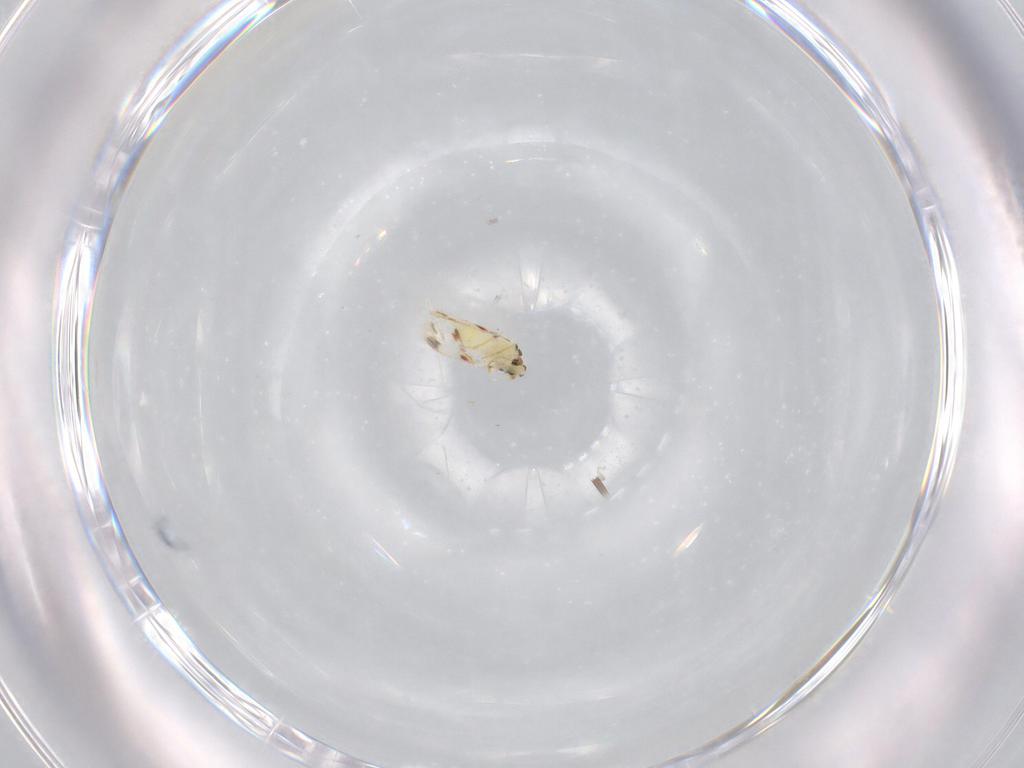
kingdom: Animalia
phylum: Arthropoda
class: Insecta
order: Hemiptera
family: Aleyrodidae
